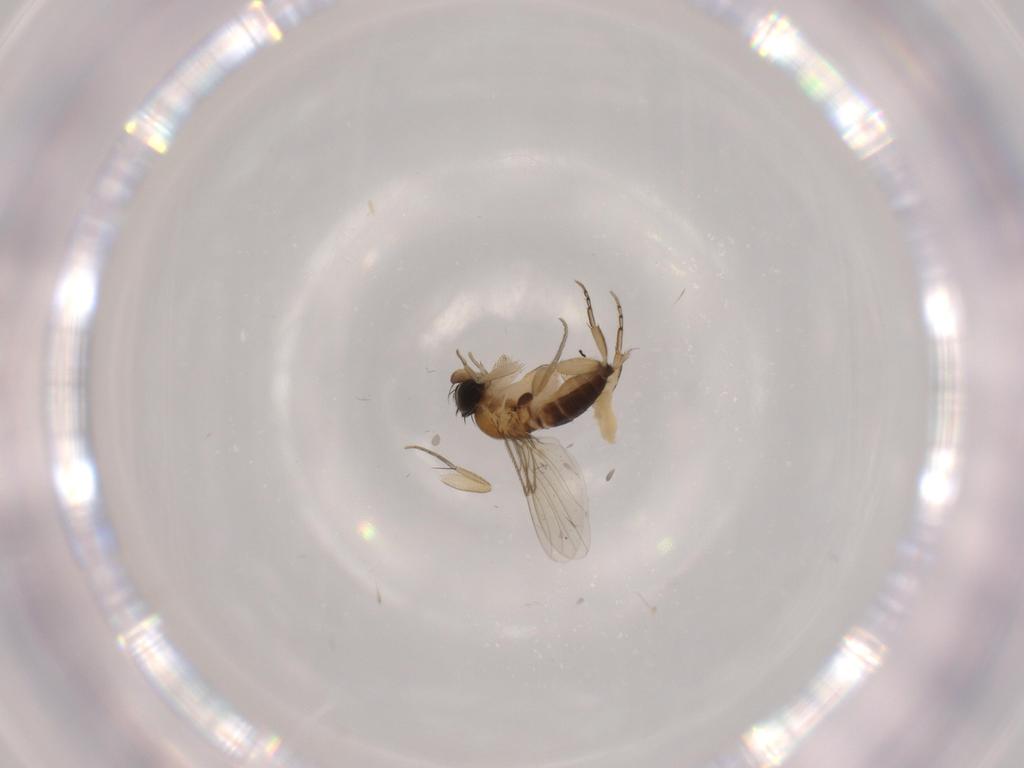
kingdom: Animalia
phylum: Arthropoda
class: Insecta
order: Diptera
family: Phoridae
